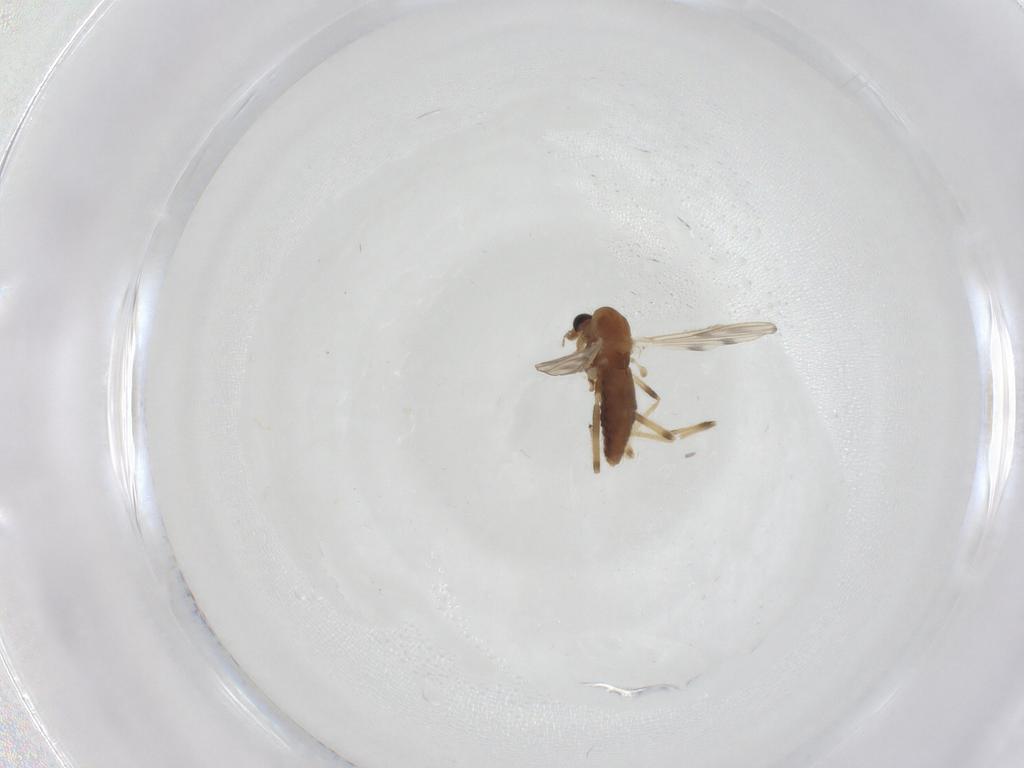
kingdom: Animalia
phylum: Arthropoda
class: Insecta
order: Diptera
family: Chironomidae
